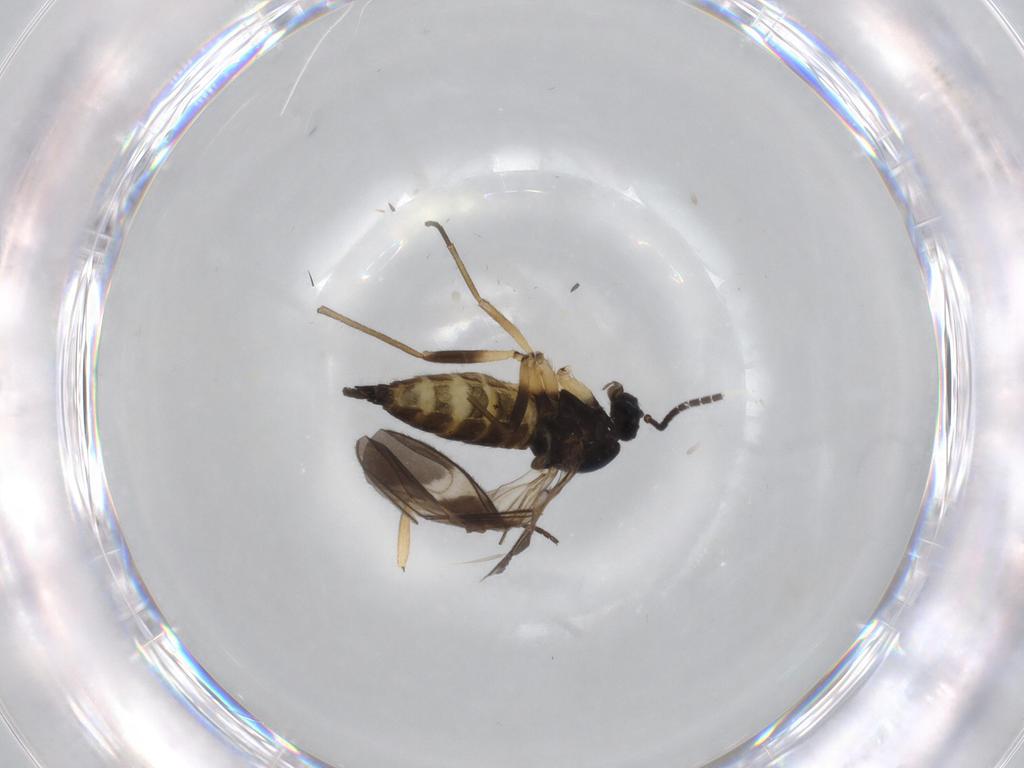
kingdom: Animalia
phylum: Arthropoda
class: Insecta
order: Diptera
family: Sciaridae
